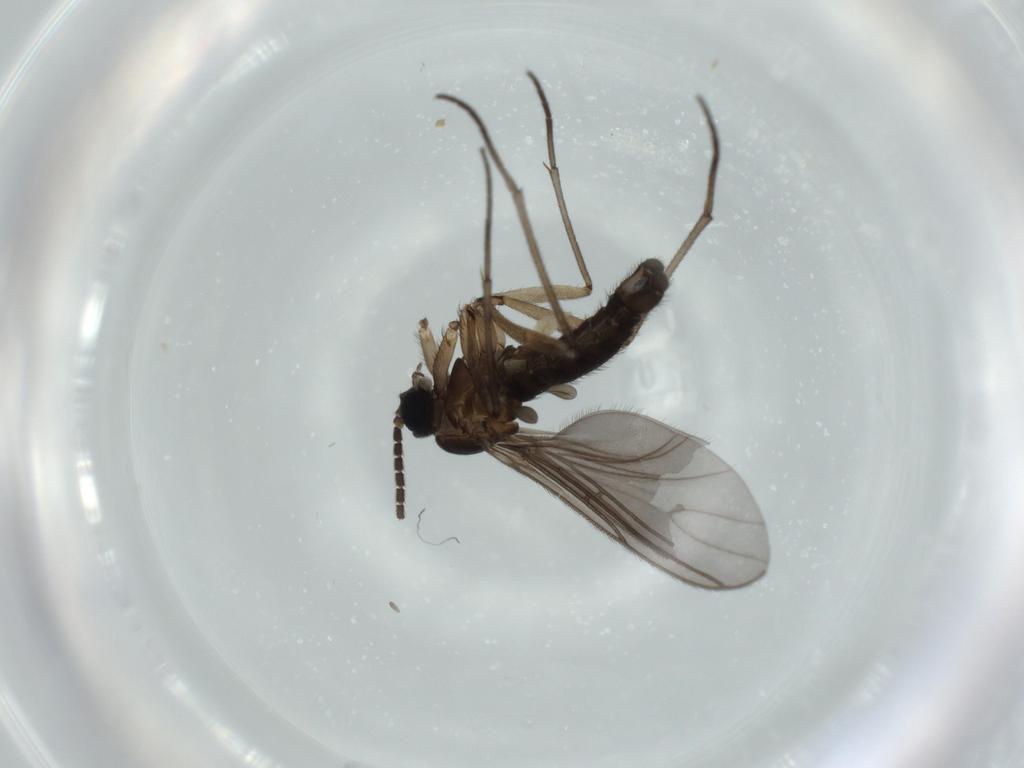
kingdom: Animalia
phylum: Arthropoda
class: Insecta
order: Diptera
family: Sciaridae
